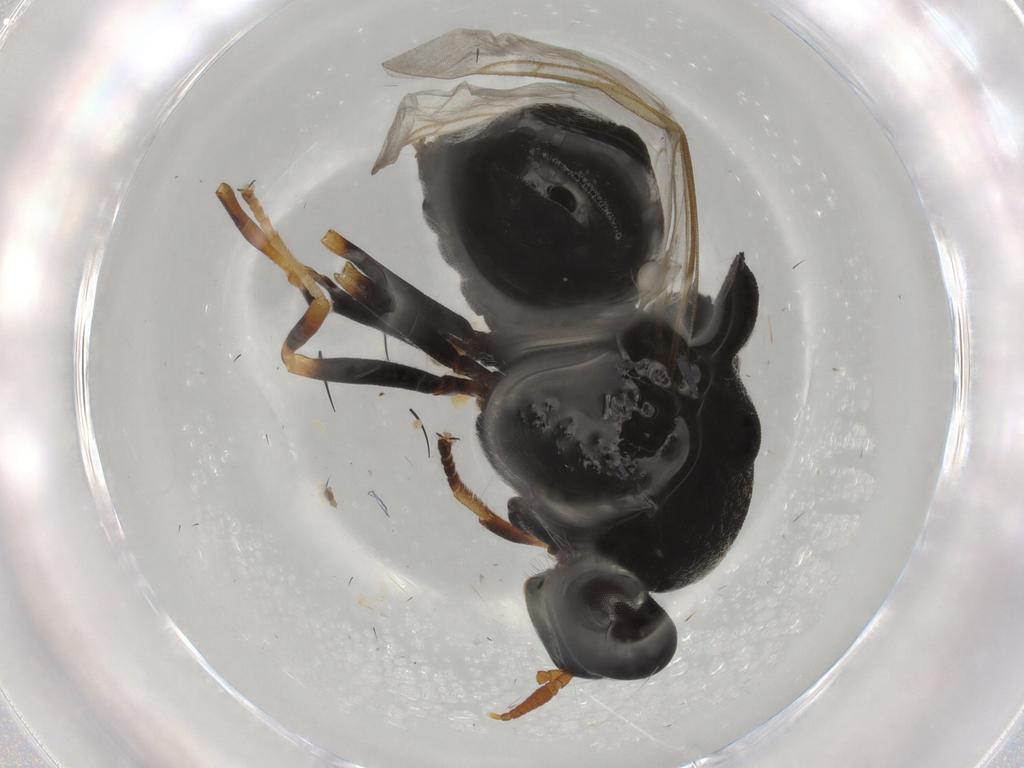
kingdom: Animalia
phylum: Arthropoda
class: Insecta
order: Diptera
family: Stratiomyidae
